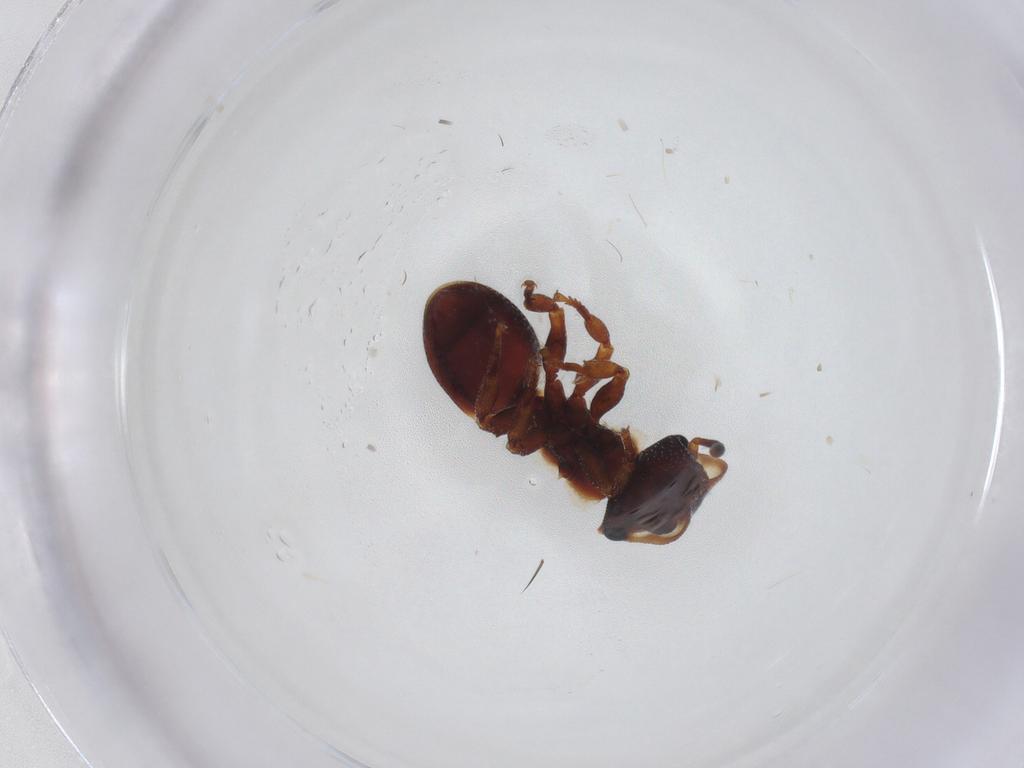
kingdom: Animalia
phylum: Arthropoda
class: Insecta
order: Hymenoptera
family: Formicidae
